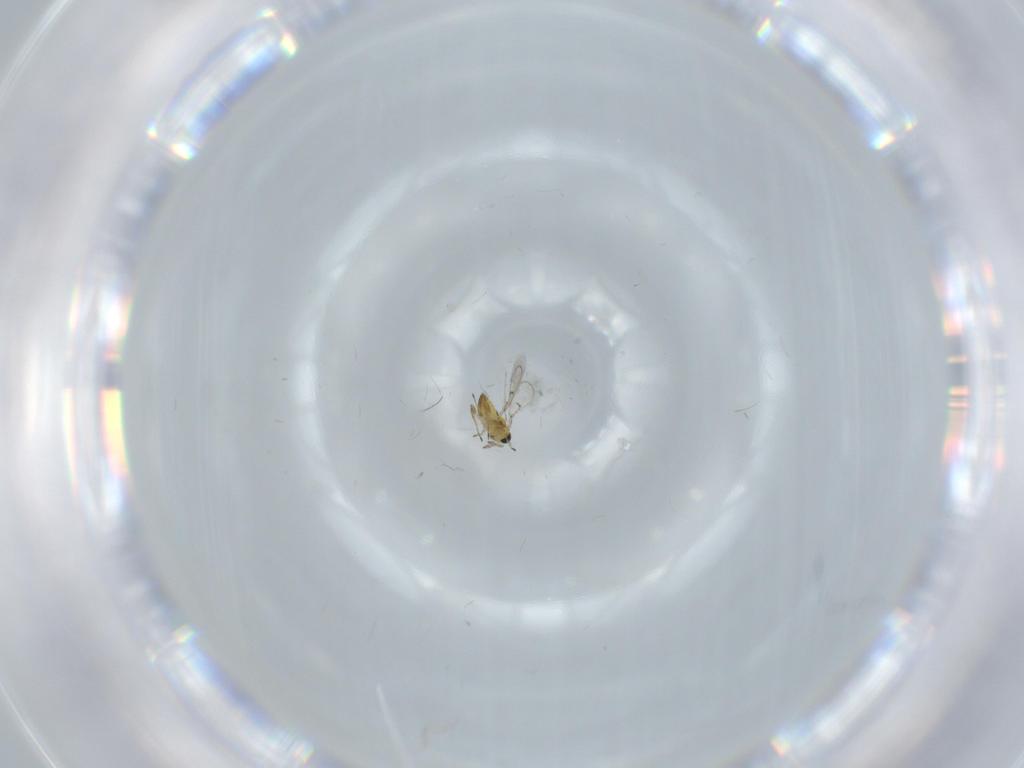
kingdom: Animalia
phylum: Arthropoda
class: Insecta
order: Hymenoptera
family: Trichogrammatidae
